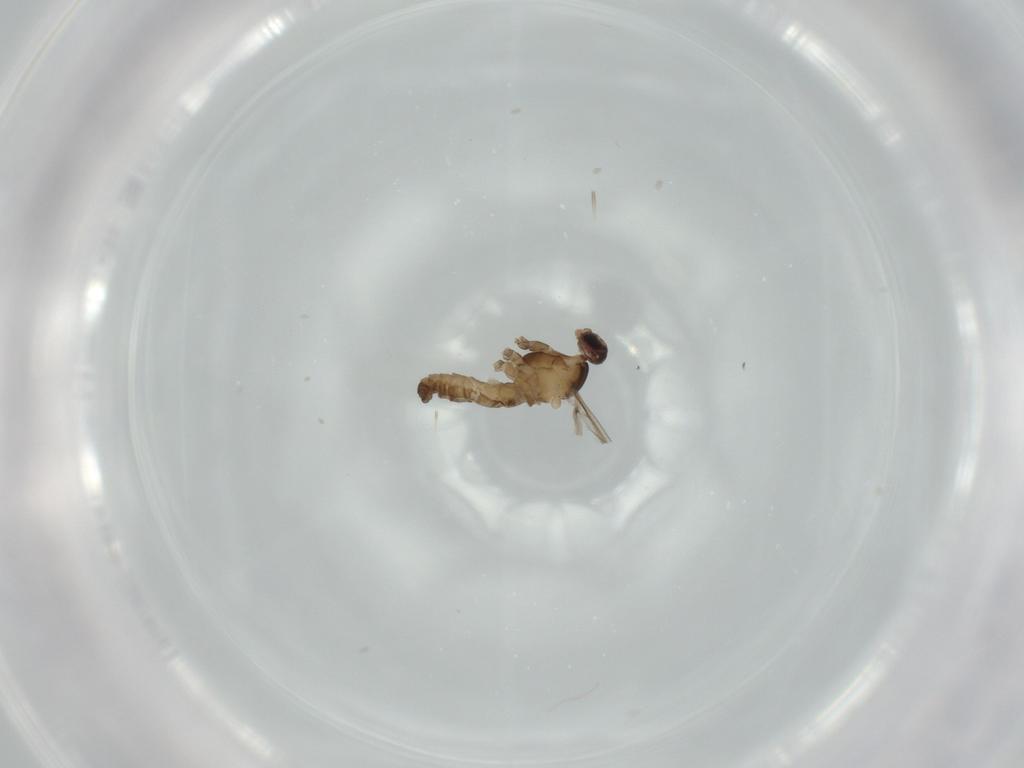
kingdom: Animalia
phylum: Arthropoda
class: Insecta
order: Diptera
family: Cecidomyiidae
